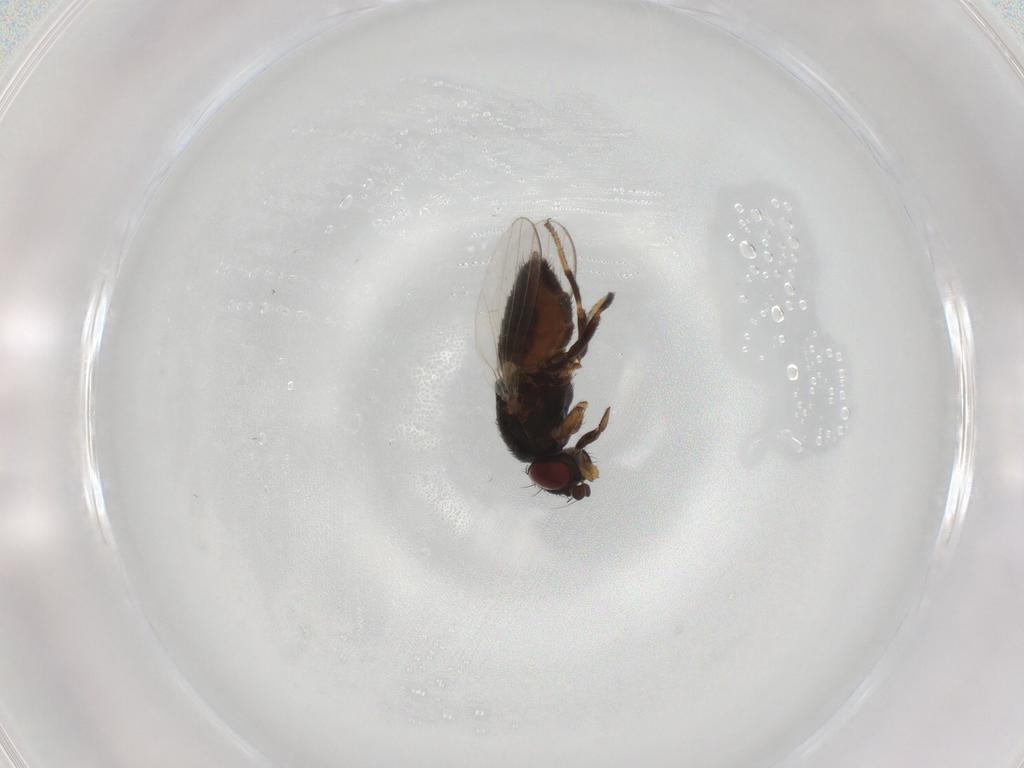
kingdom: Animalia
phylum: Arthropoda
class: Insecta
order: Diptera
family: Milichiidae
